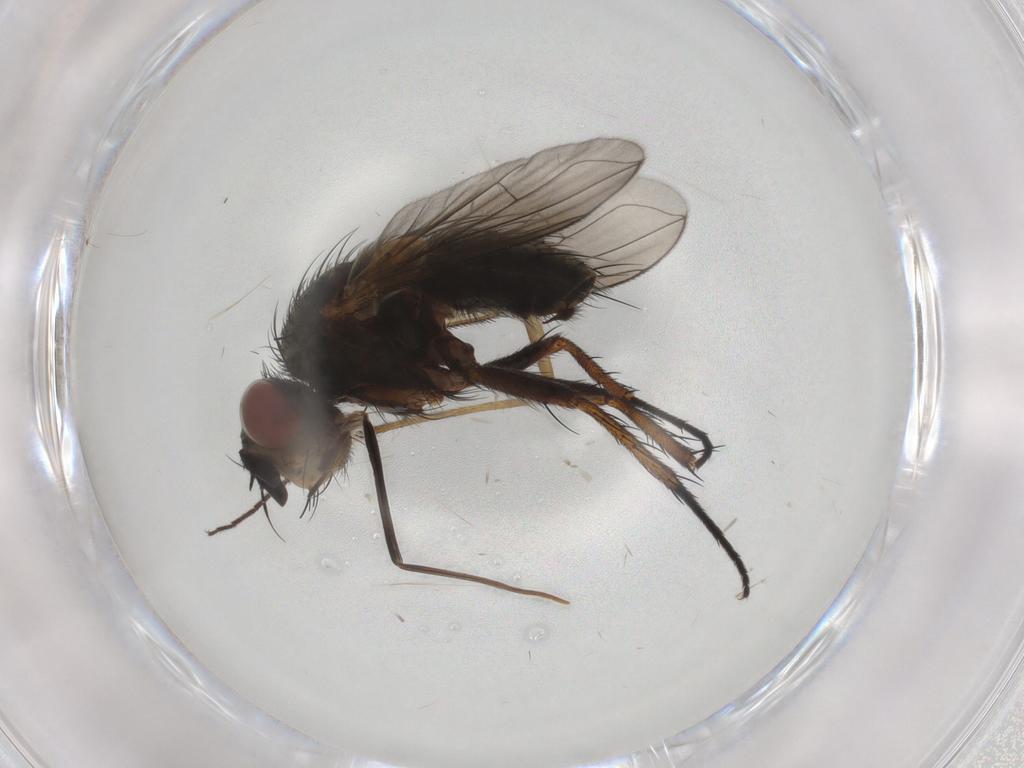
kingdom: Animalia
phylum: Arthropoda
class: Insecta
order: Diptera
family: Tachinidae
